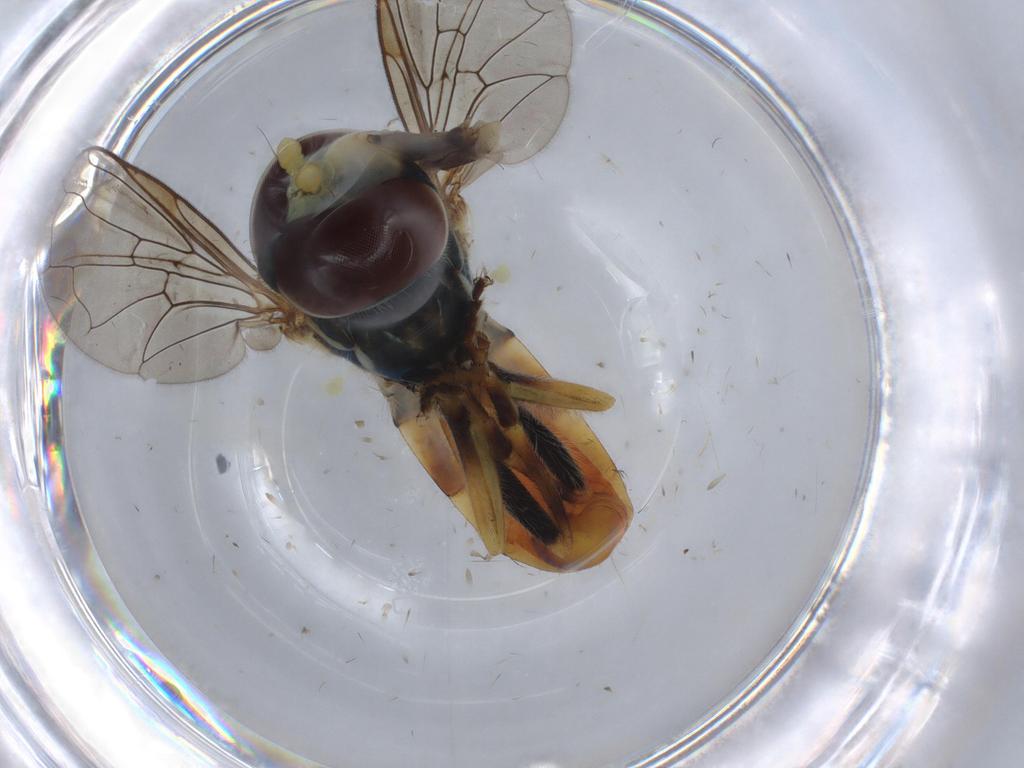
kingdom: Animalia
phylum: Arthropoda
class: Insecta
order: Diptera
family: Syrphidae
